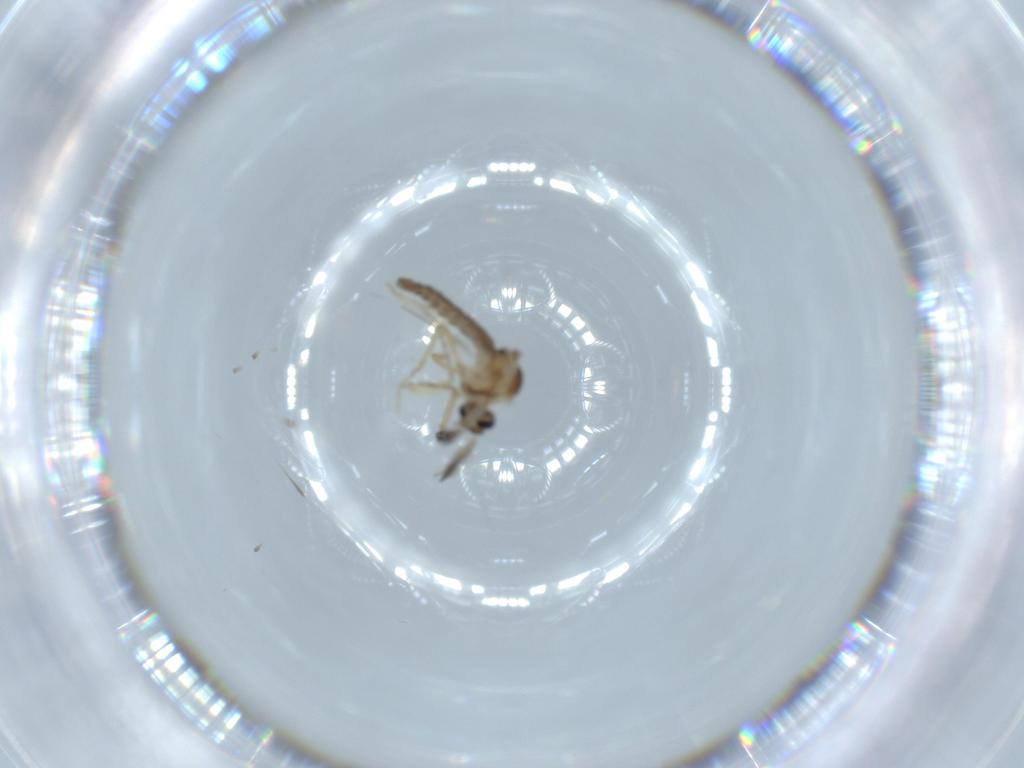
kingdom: Animalia
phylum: Arthropoda
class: Insecta
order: Diptera
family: Ceratopogonidae
